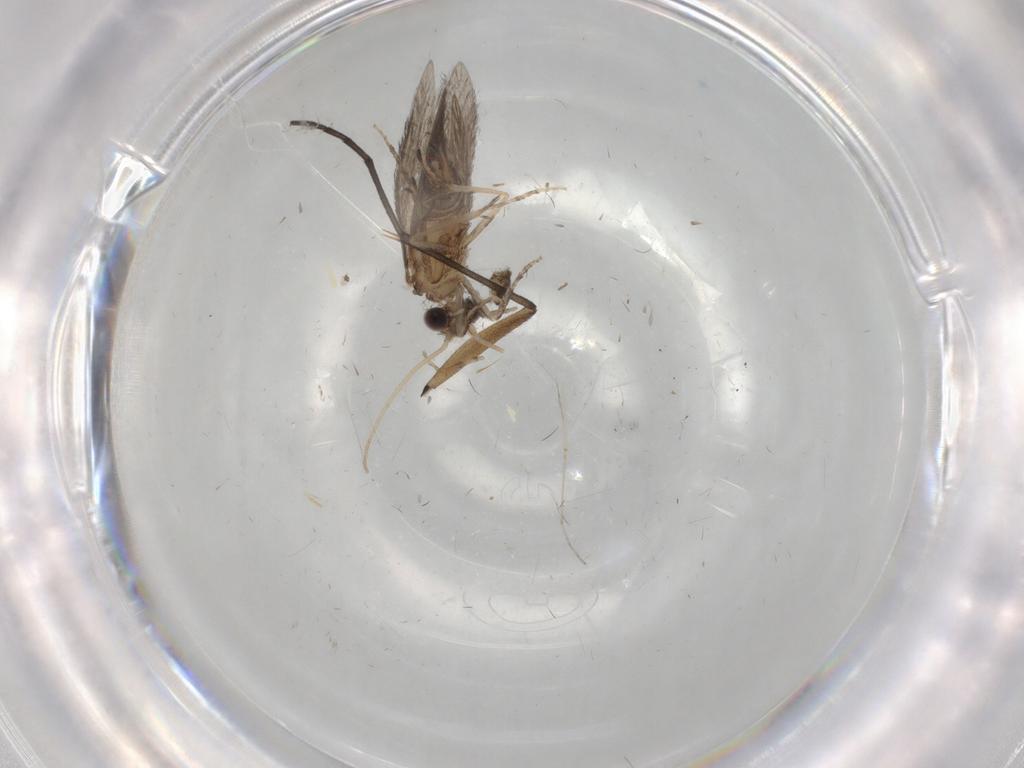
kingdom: Animalia
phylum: Arthropoda
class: Insecta
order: Trichoptera
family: Hydroptilidae
